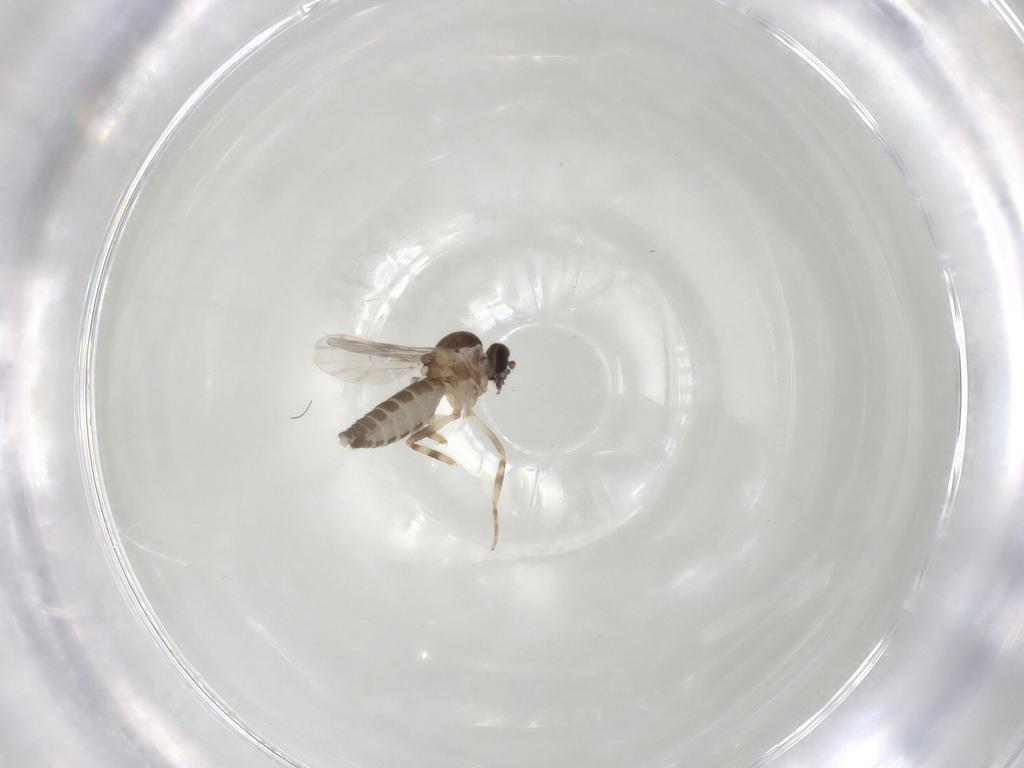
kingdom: Animalia
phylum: Arthropoda
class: Insecta
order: Diptera
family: Ceratopogonidae
